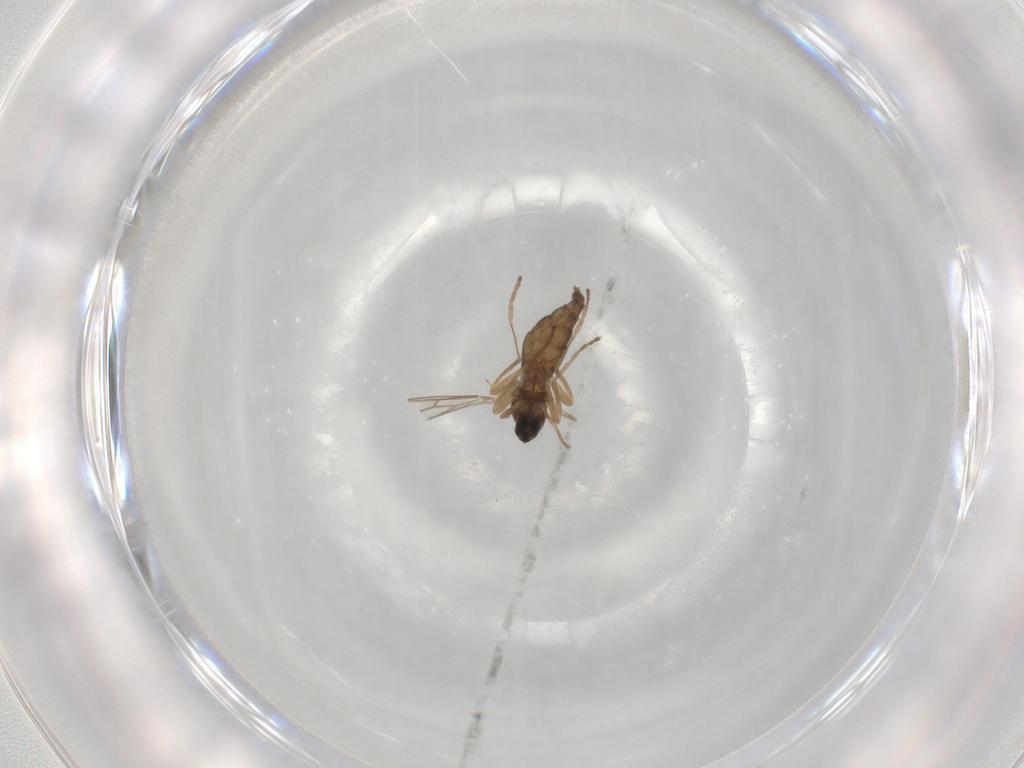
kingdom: Animalia
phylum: Arthropoda
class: Insecta
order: Diptera
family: Cecidomyiidae
